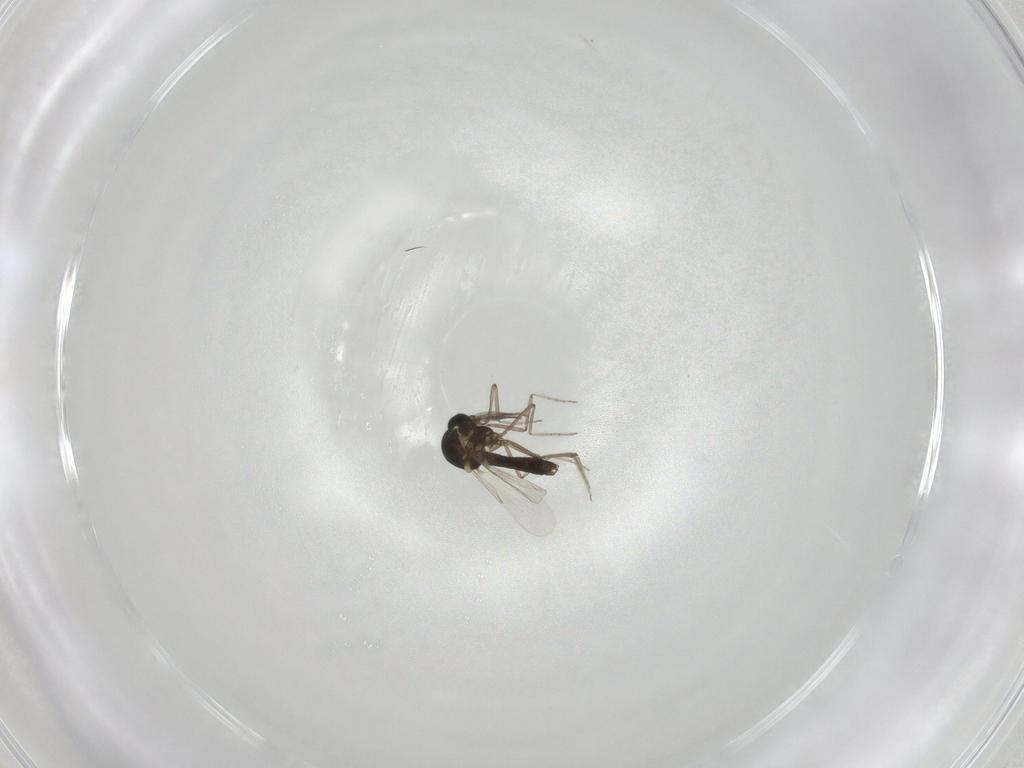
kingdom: Animalia
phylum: Arthropoda
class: Insecta
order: Diptera
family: Ceratopogonidae
